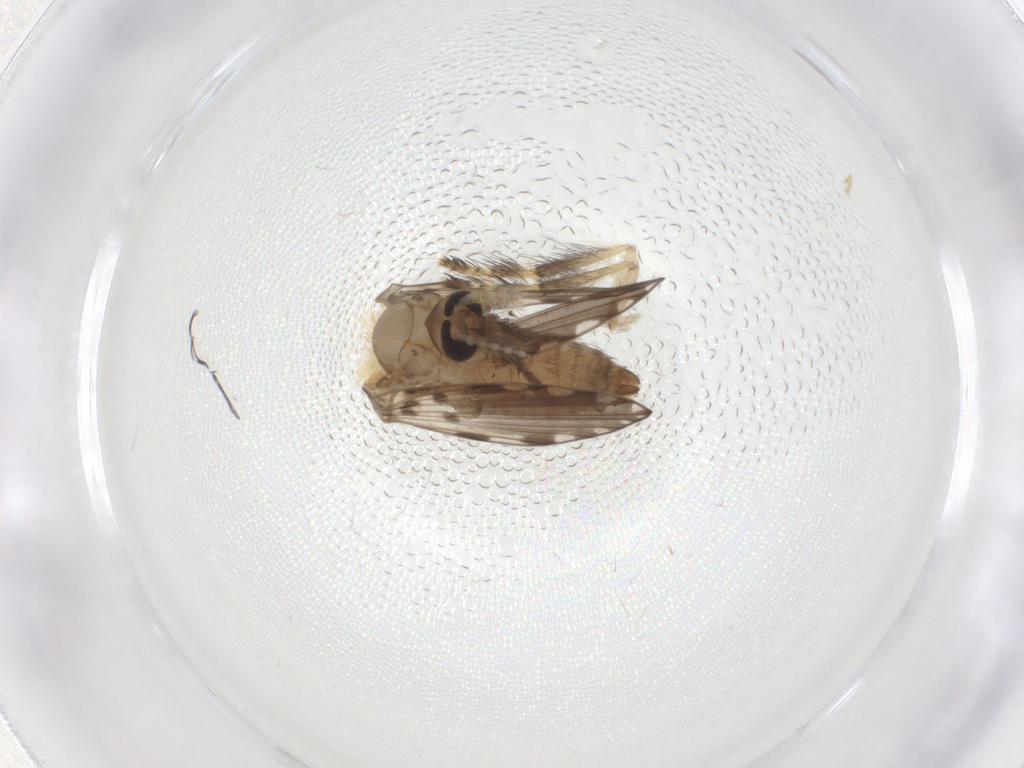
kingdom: Animalia
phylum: Arthropoda
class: Insecta
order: Diptera
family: Psychodidae
